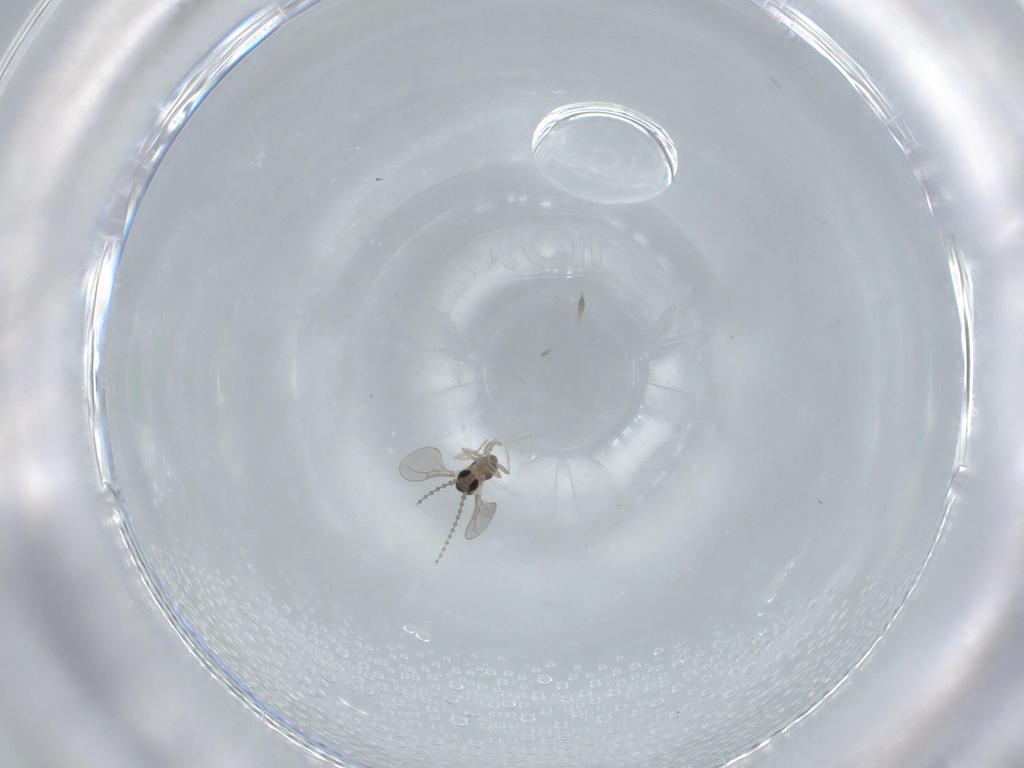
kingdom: Animalia
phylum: Arthropoda
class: Insecta
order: Diptera
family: Cecidomyiidae
